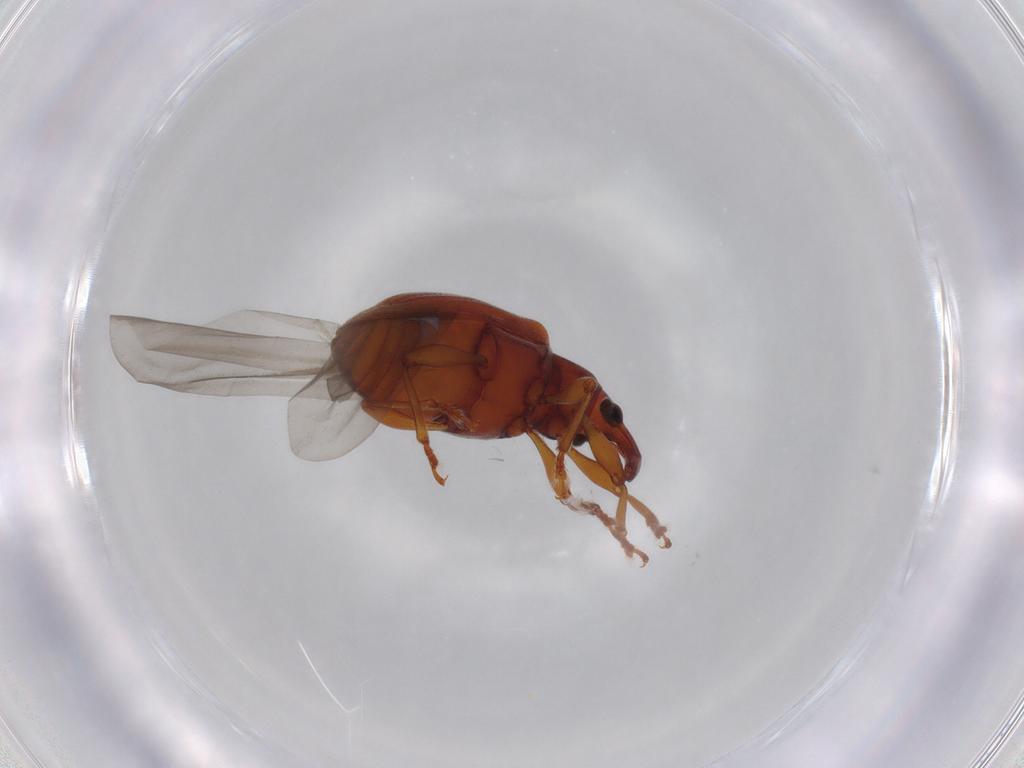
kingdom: Animalia
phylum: Arthropoda
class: Insecta
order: Coleoptera
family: Curculionidae
